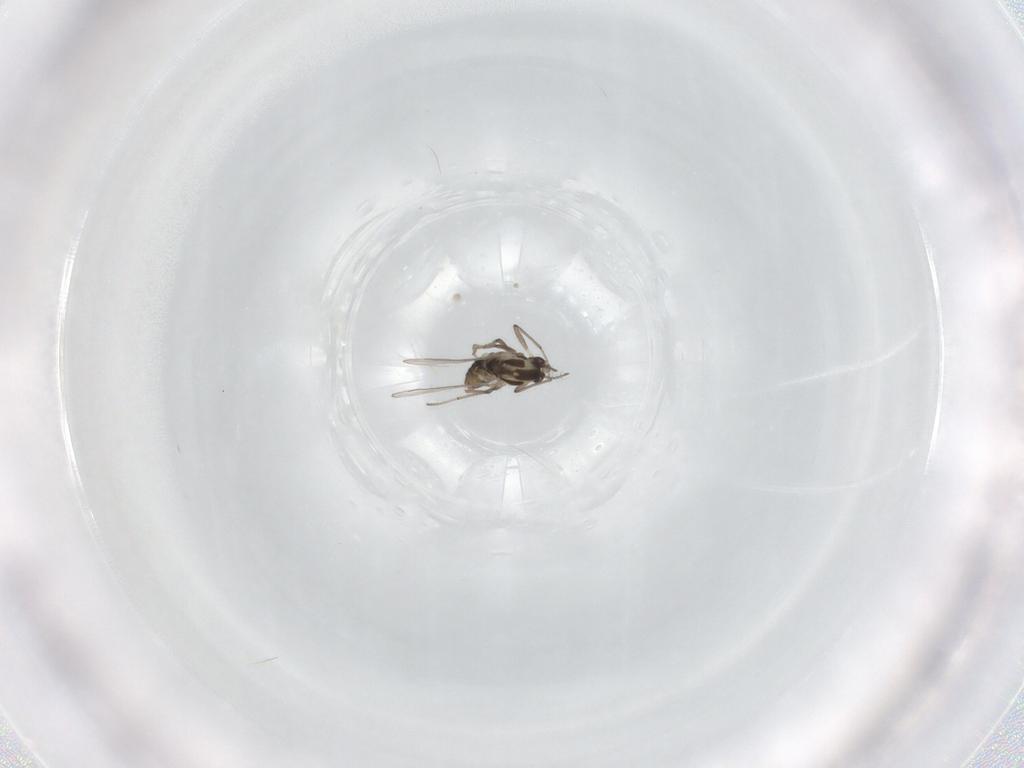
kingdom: Animalia
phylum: Arthropoda
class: Insecta
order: Diptera
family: Chironomidae
